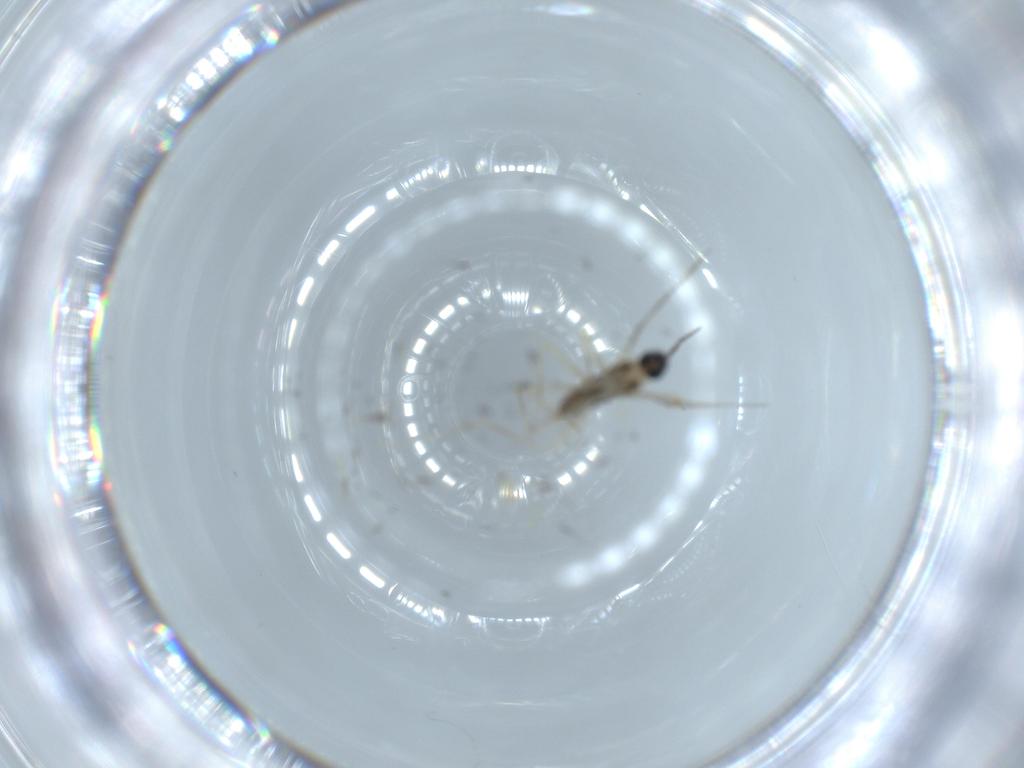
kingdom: Animalia
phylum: Arthropoda
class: Insecta
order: Diptera
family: Cecidomyiidae
